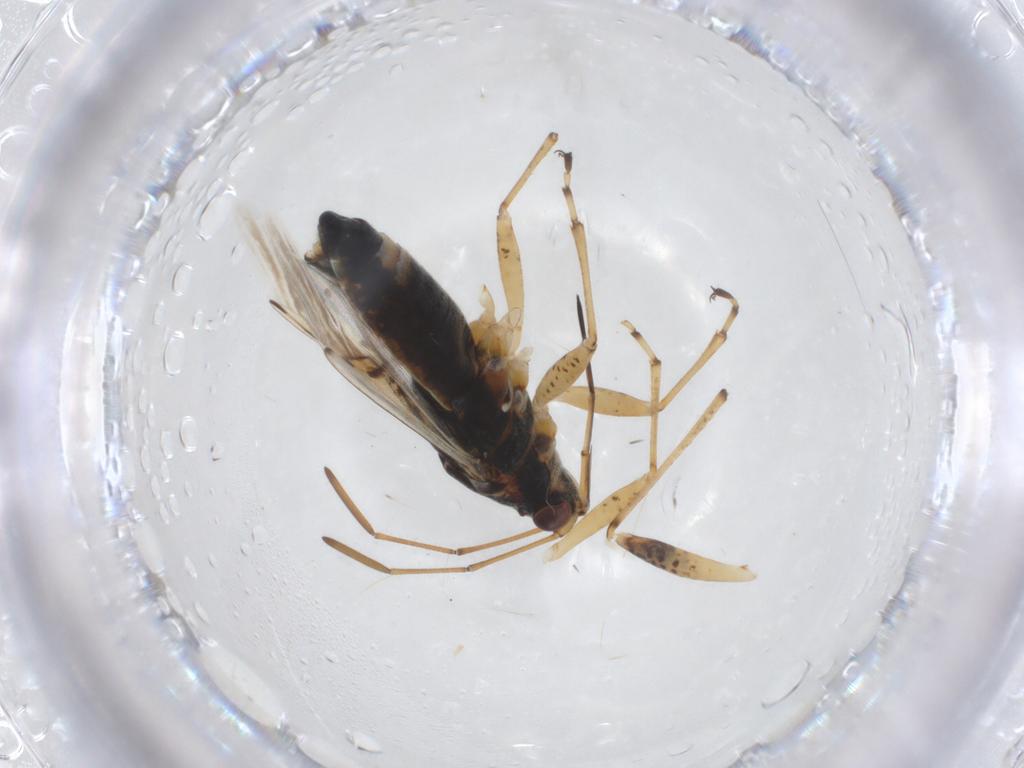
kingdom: Animalia
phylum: Arthropoda
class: Insecta
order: Hemiptera
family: Lygaeidae
